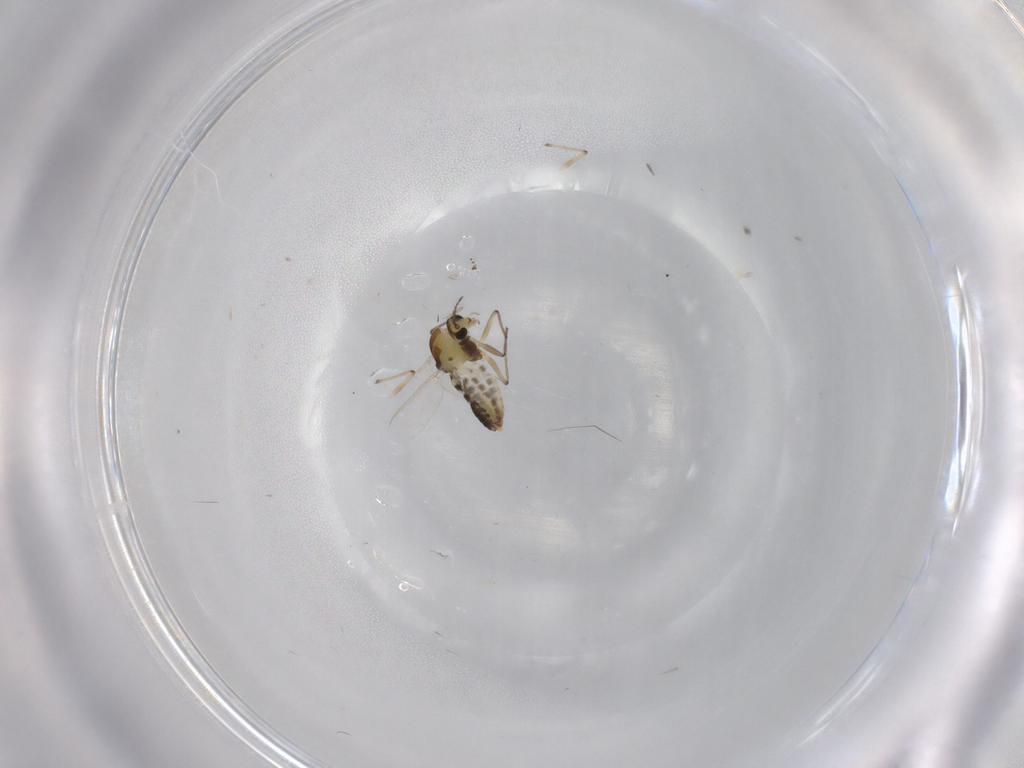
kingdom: Animalia
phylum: Arthropoda
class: Insecta
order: Diptera
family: Chironomidae
